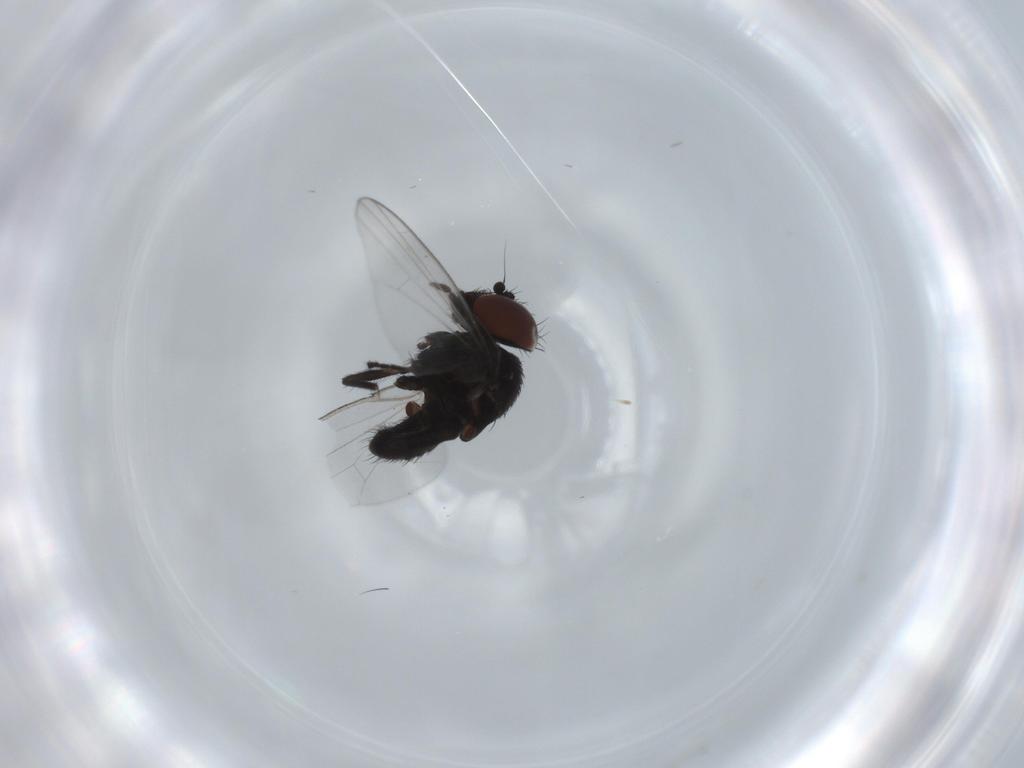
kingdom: Animalia
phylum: Arthropoda
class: Insecta
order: Diptera
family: Milichiidae
